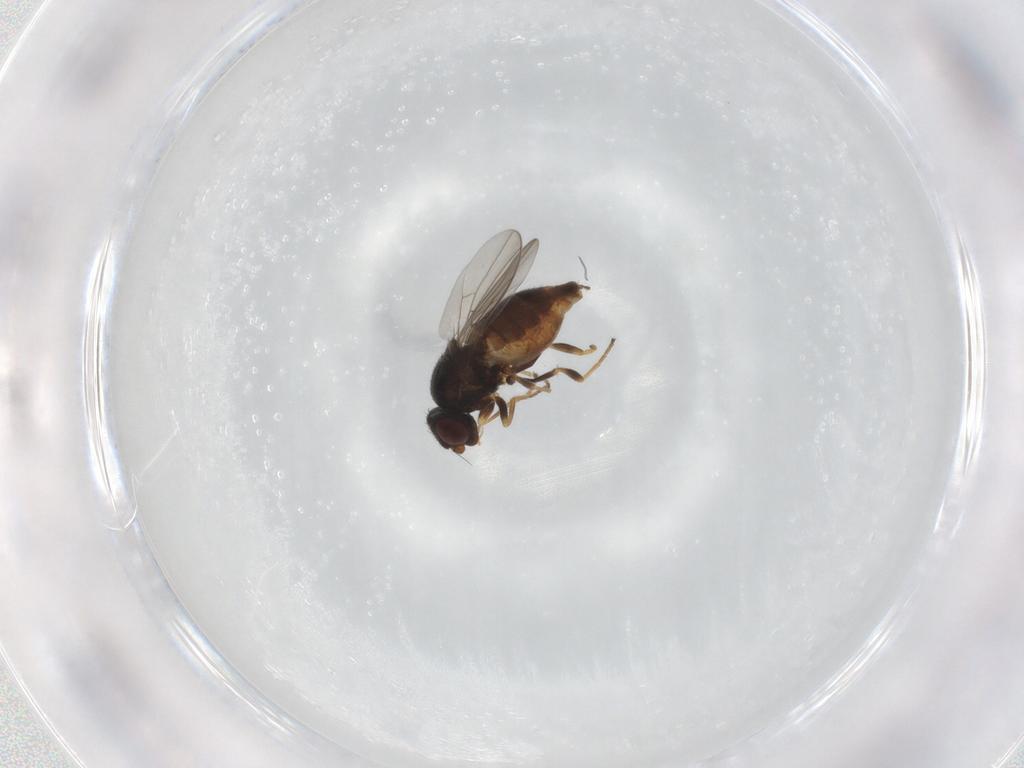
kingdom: Animalia
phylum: Arthropoda
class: Insecta
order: Diptera
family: Chloropidae
